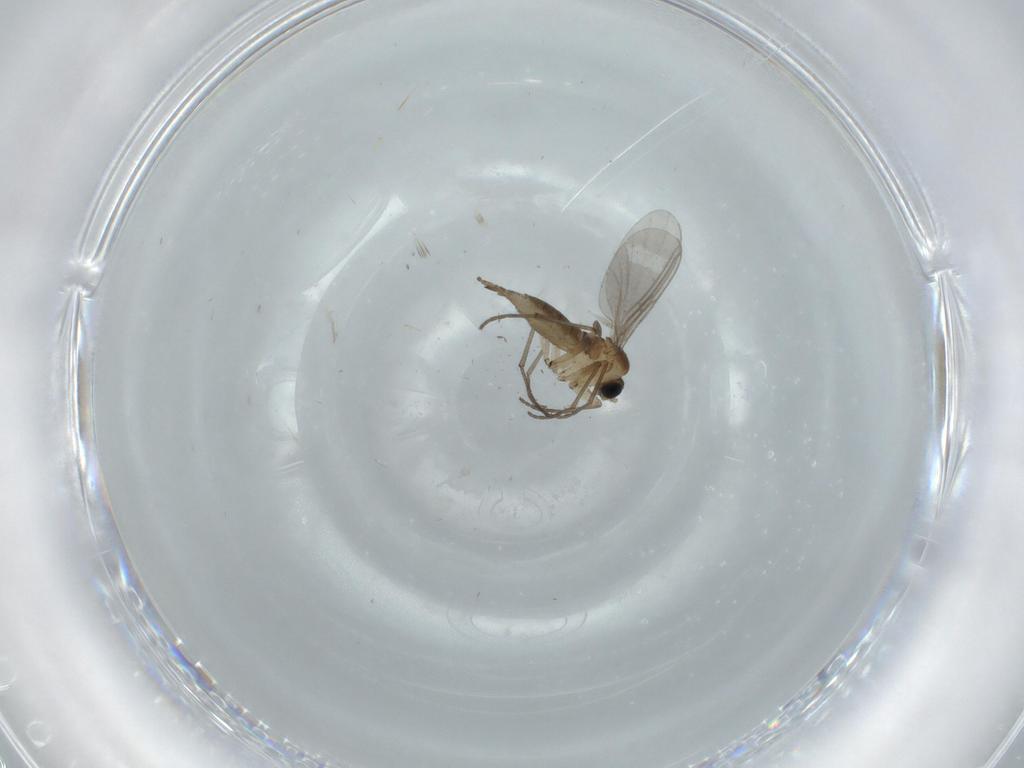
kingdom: Animalia
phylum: Arthropoda
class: Insecta
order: Diptera
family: Sciaridae
